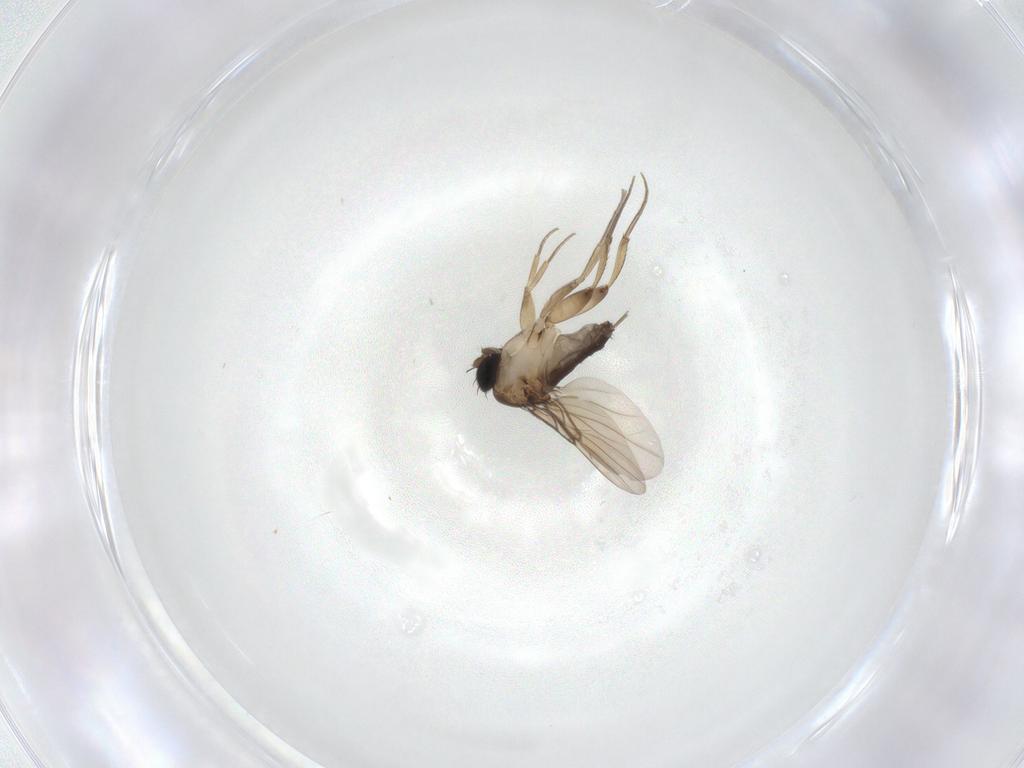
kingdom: Animalia
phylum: Arthropoda
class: Insecta
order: Diptera
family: Phoridae
